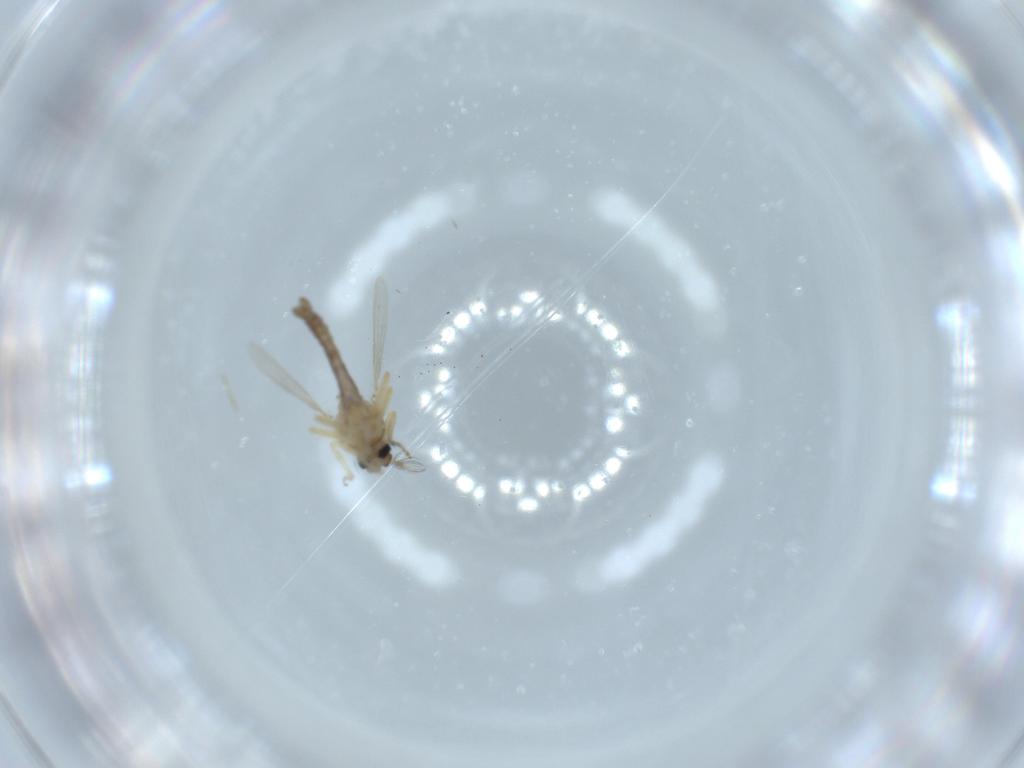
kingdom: Animalia
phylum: Arthropoda
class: Insecta
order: Diptera
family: Ceratopogonidae
